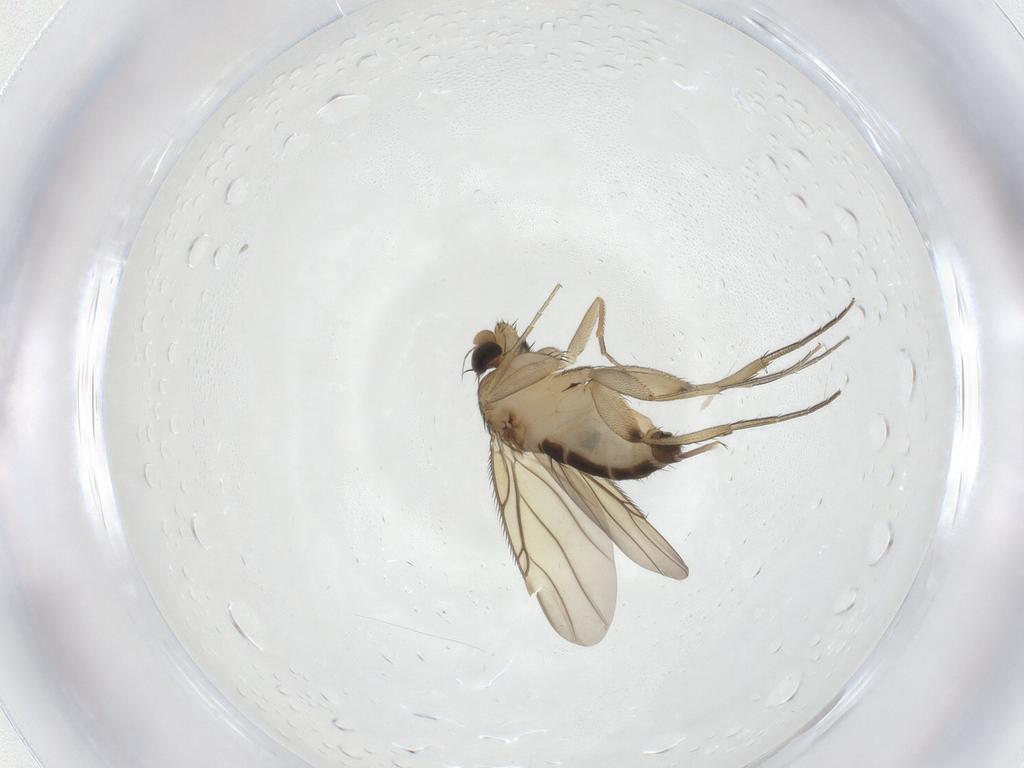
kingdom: Animalia
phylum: Arthropoda
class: Insecta
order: Diptera
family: Phoridae
